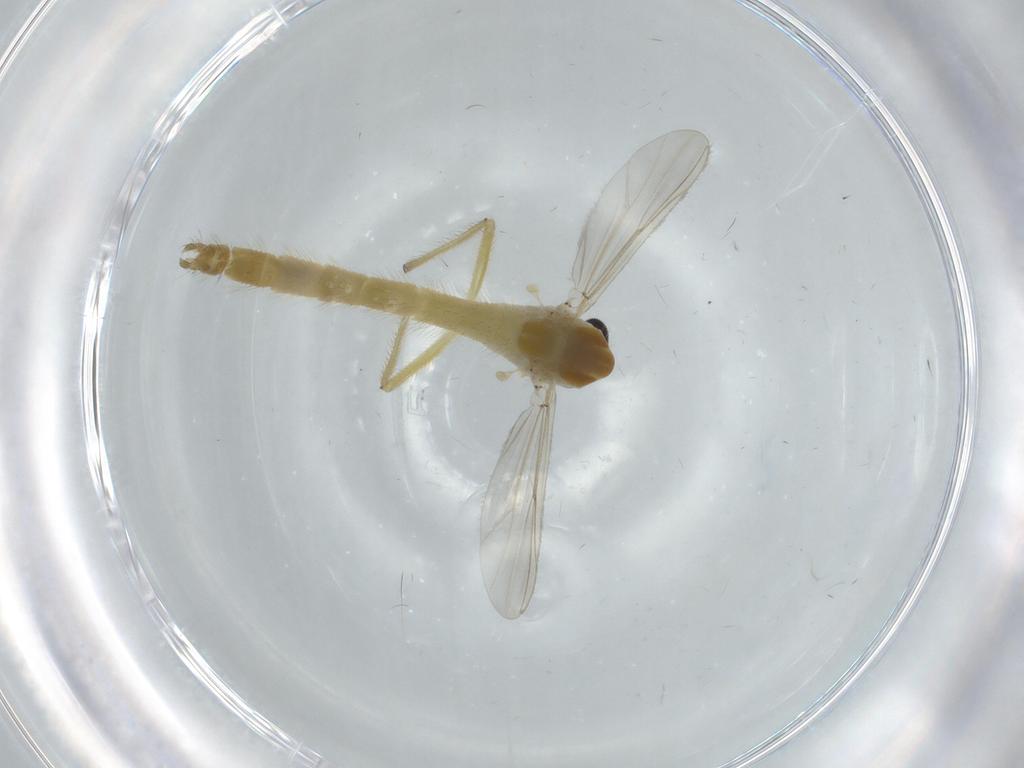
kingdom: Animalia
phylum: Arthropoda
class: Insecta
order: Diptera
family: Chironomidae
